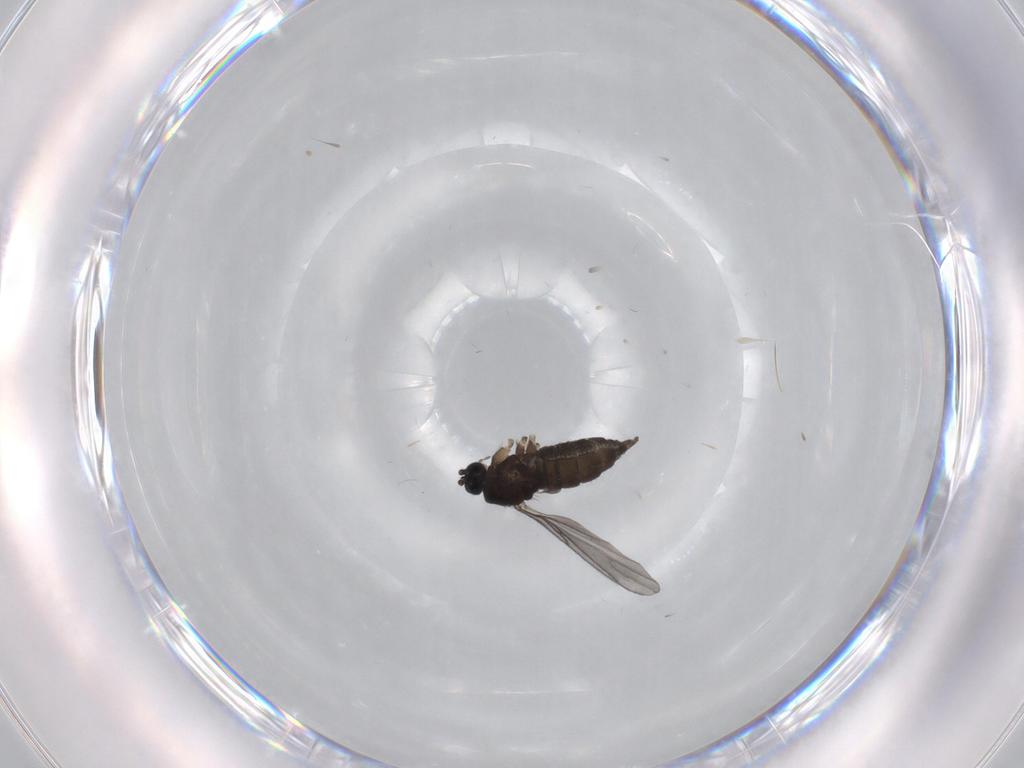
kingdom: Animalia
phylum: Arthropoda
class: Insecta
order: Diptera
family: Sciaridae
